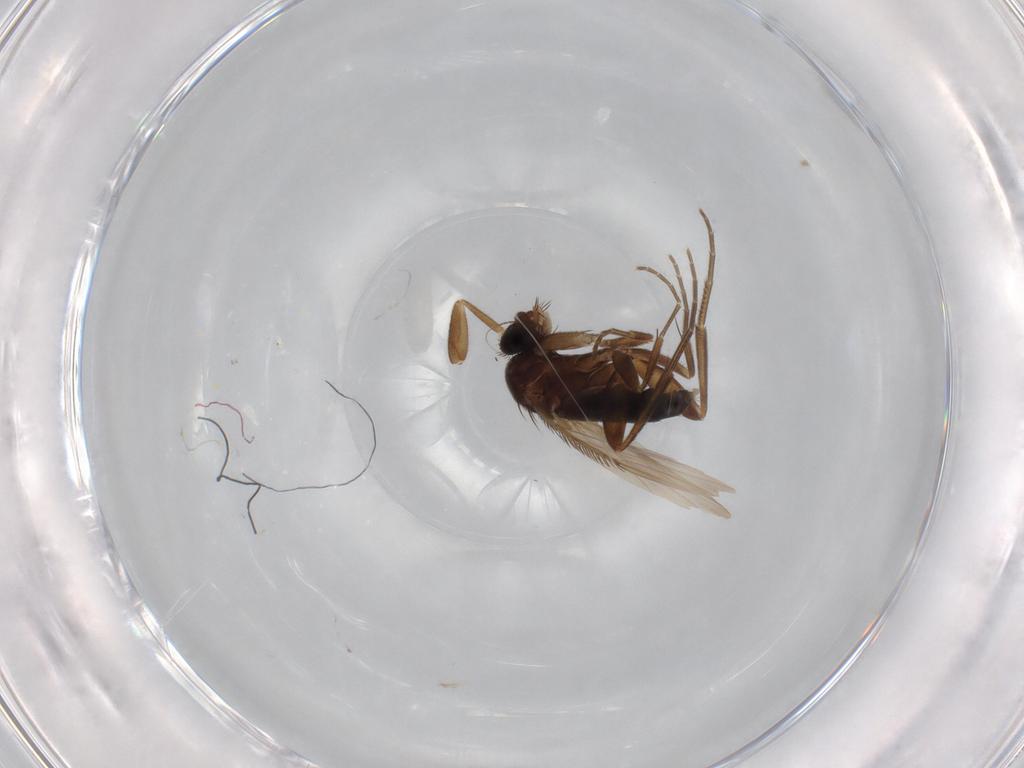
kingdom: Animalia
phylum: Arthropoda
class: Insecta
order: Diptera
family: Phoridae
